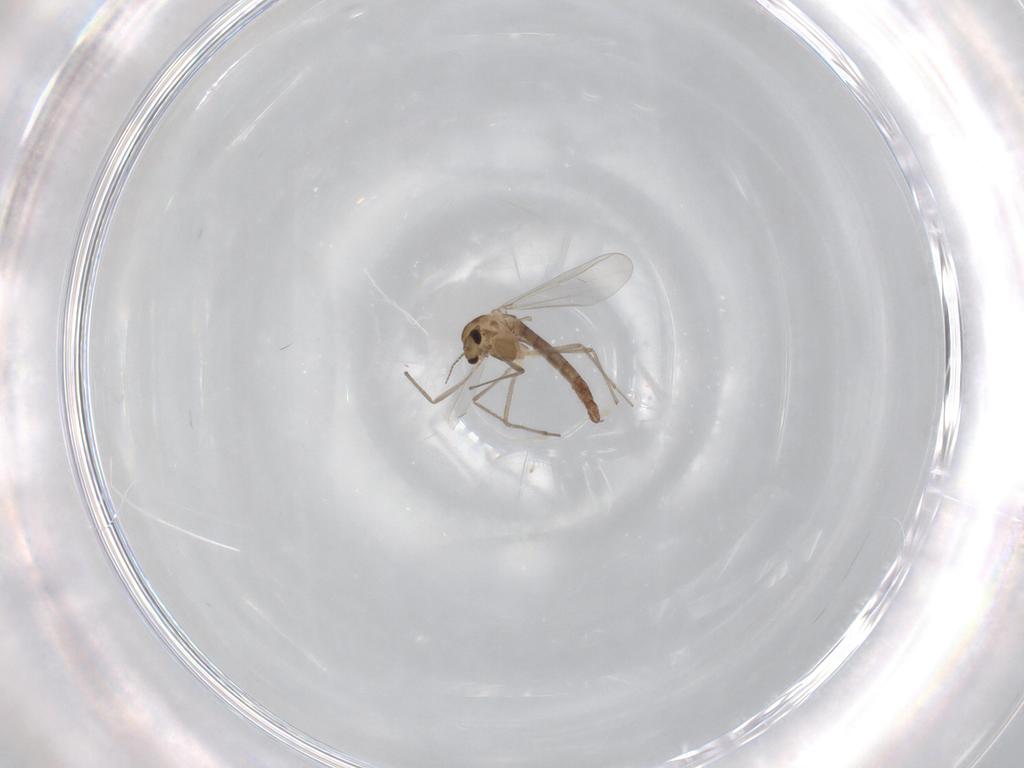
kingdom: Animalia
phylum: Arthropoda
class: Insecta
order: Diptera
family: Chironomidae
